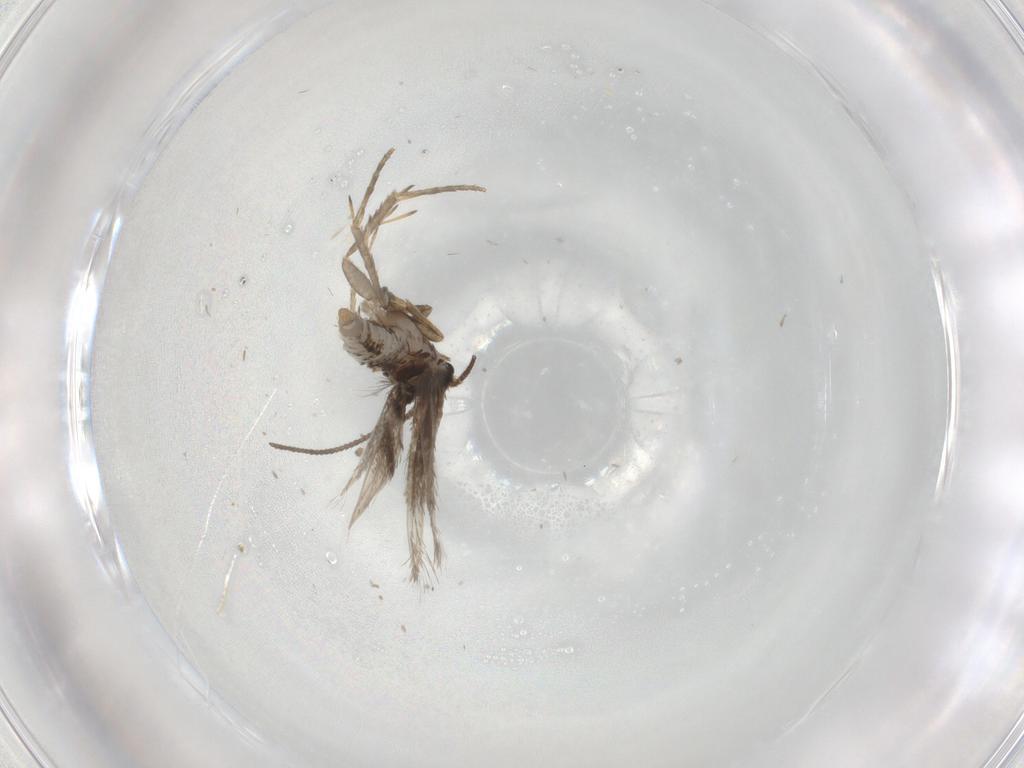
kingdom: Animalia
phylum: Arthropoda
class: Insecta
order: Lepidoptera
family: Nepticulidae
